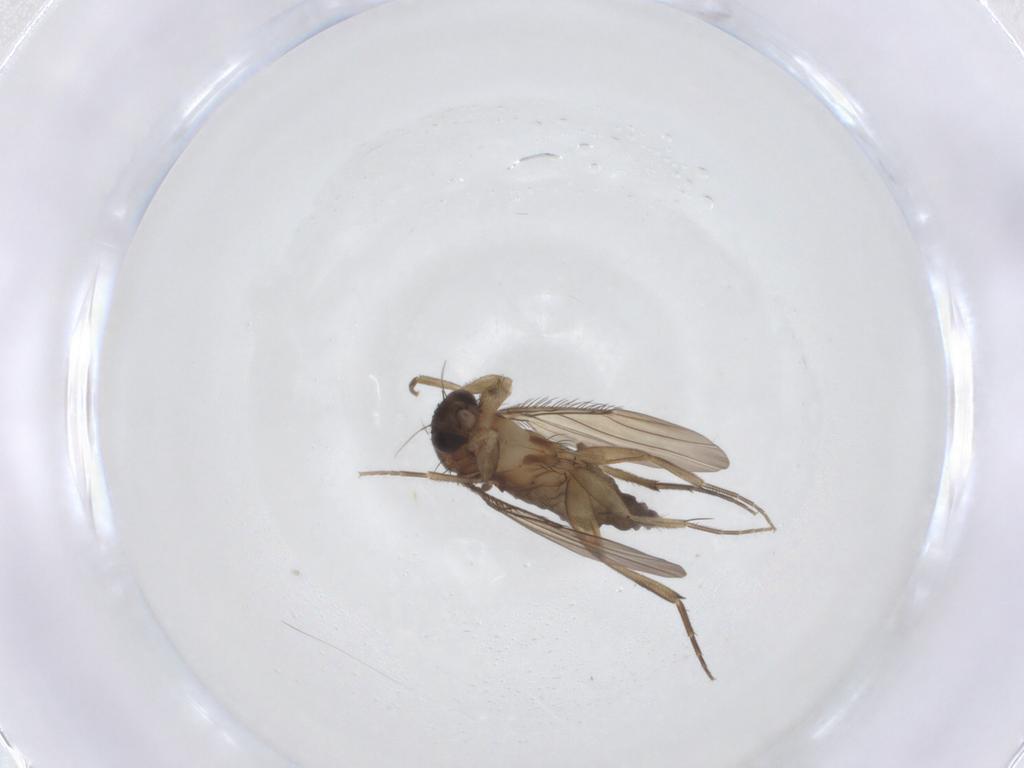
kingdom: Animalia
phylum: Arthropoda
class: Insecta
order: Diptera
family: Phoridae
